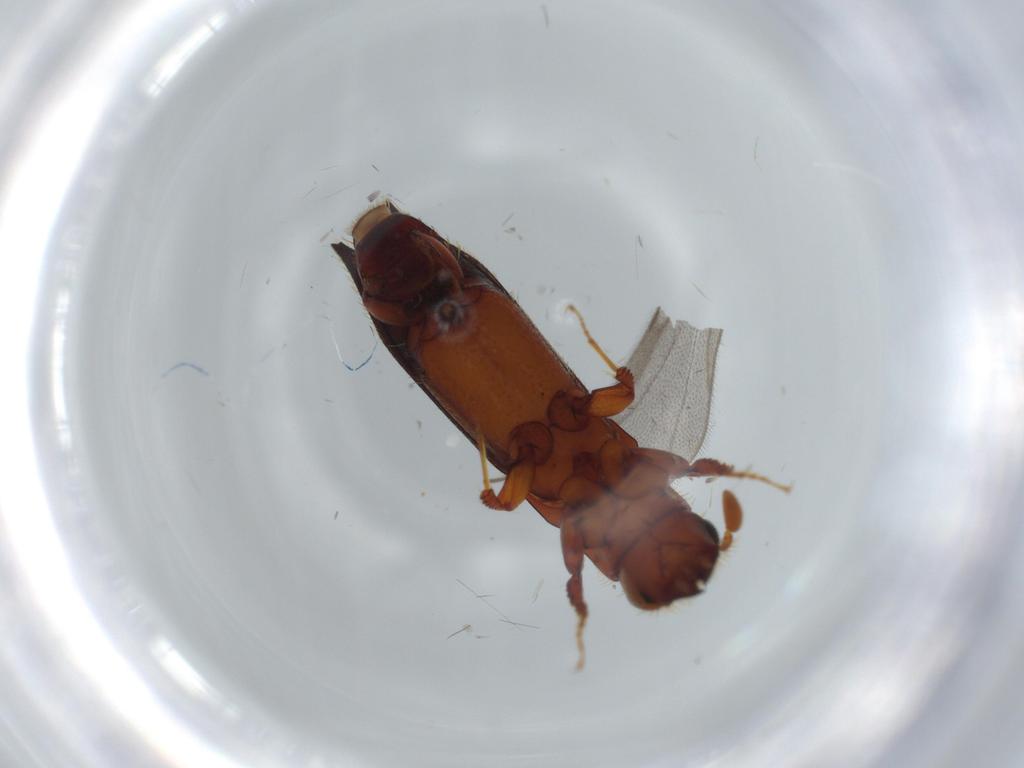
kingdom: Animalia
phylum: Arthropoda
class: Insecta
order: Coleoptera
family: Curculionidae
